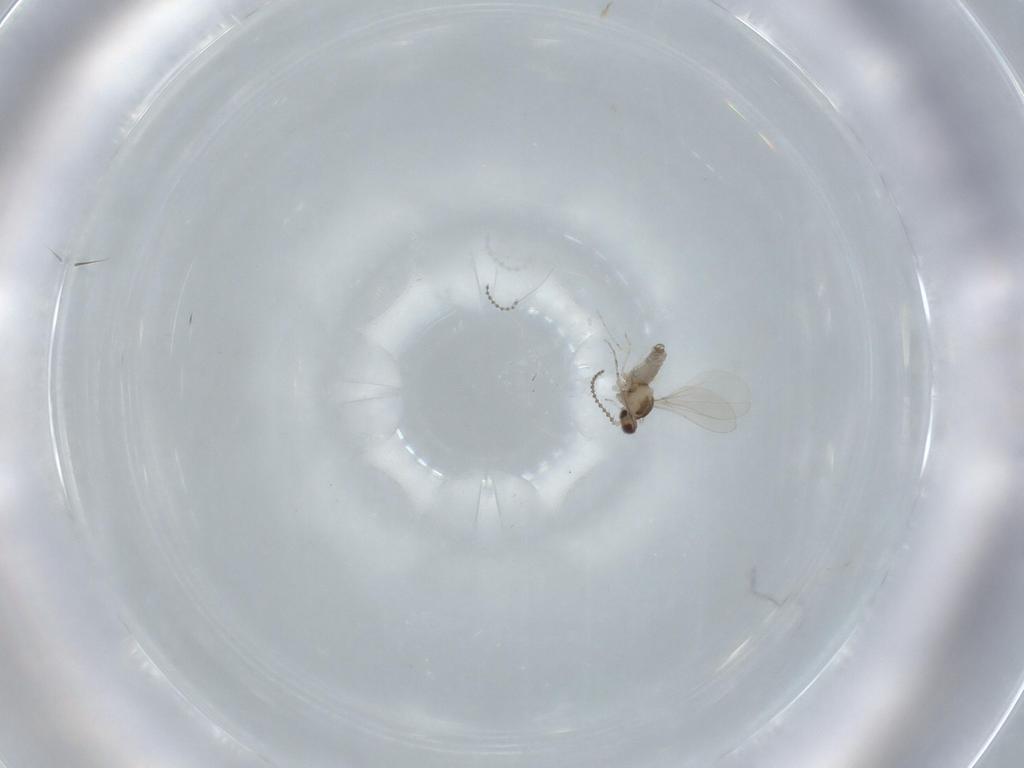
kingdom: Animalia
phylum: Arthropoda
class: Insecta
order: Diptera
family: Cecidomyiidae
